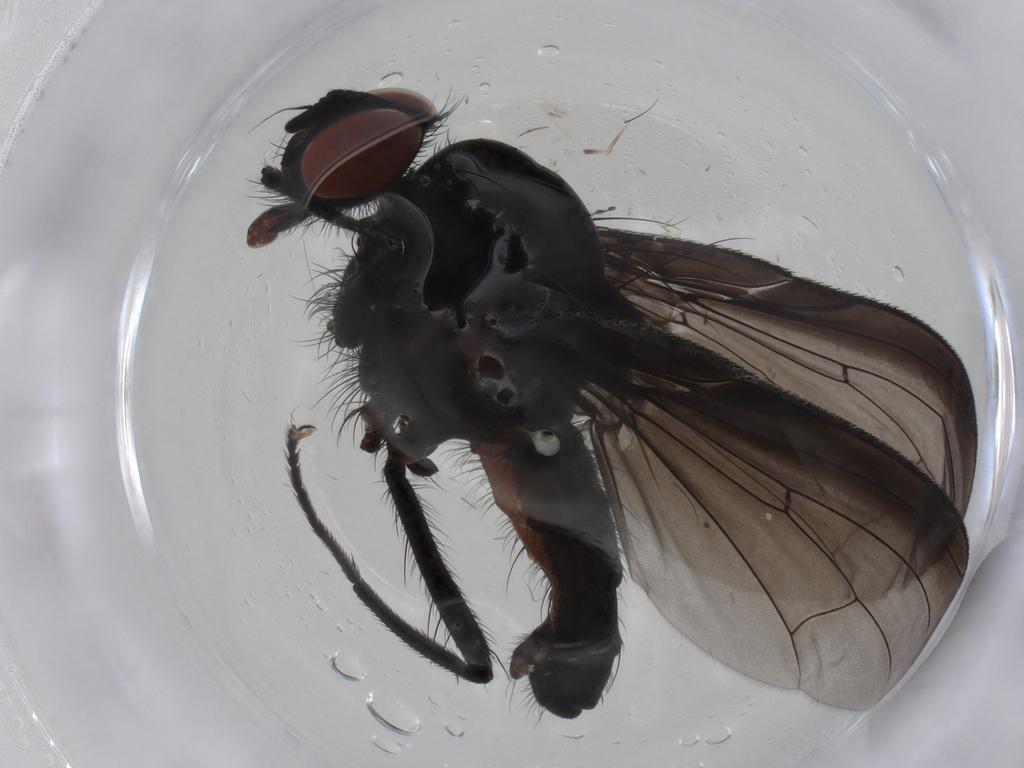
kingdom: Animalia
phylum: Arthropoda
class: Insecta
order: Diptera
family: Anthomyiidae
